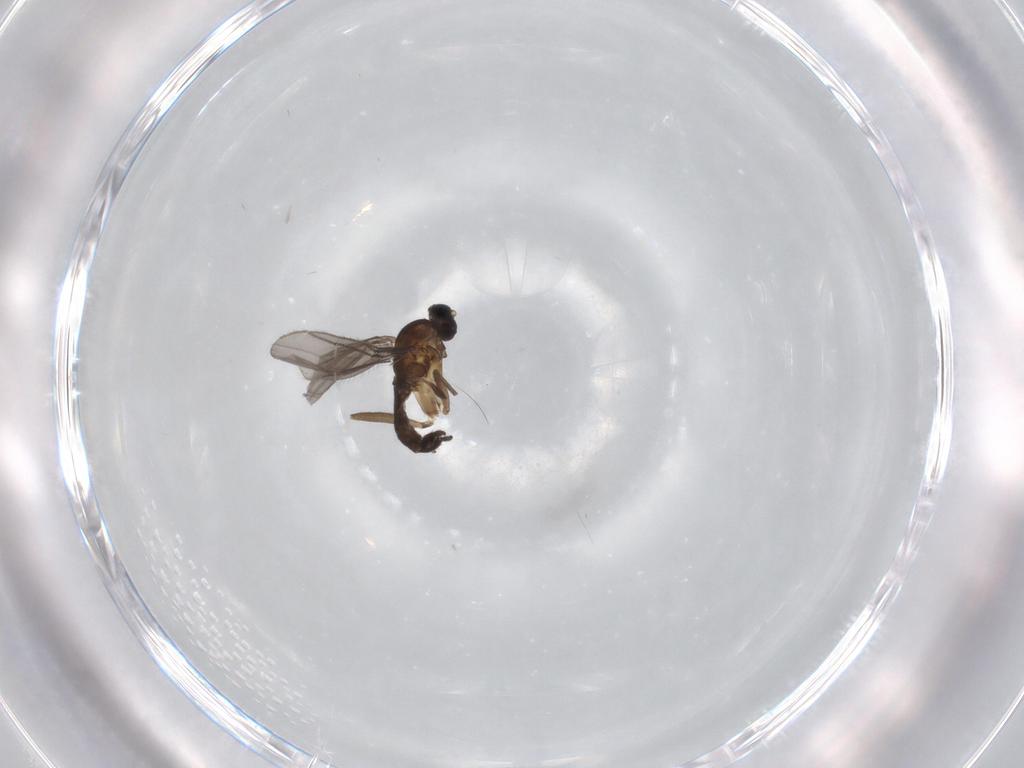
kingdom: Animalia
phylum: Arthropoda
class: Insecta
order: Diptera
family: Sciaridae
